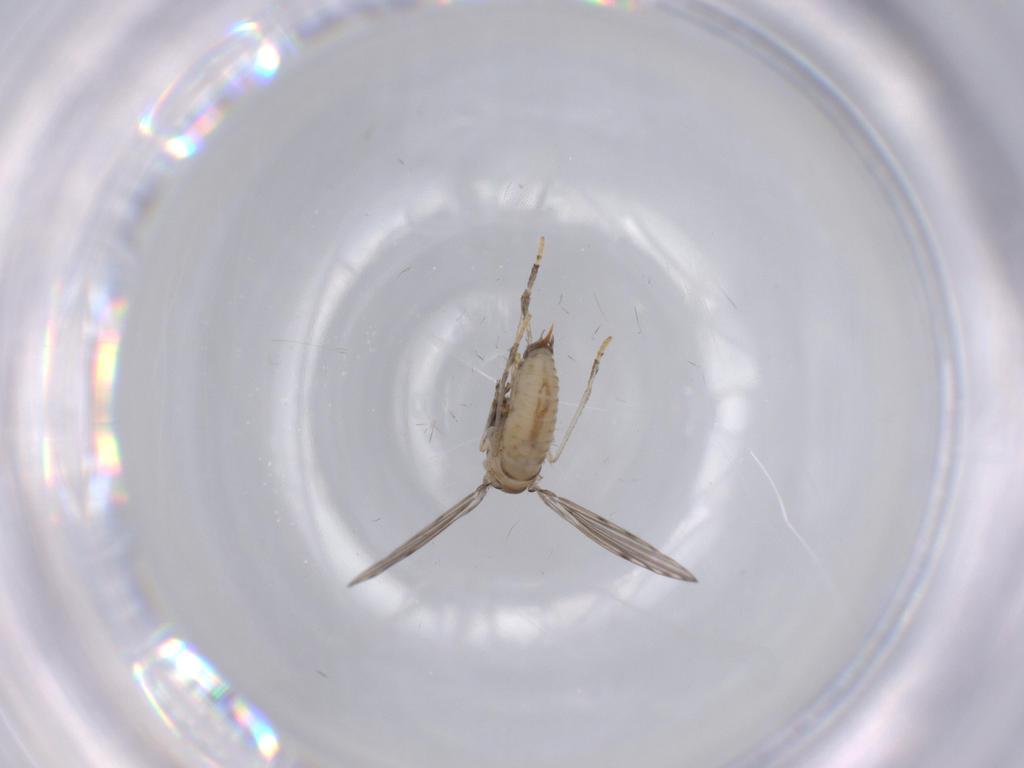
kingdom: Animalia
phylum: Arthropoda
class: Insecta
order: Diptera
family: Psychodidae
